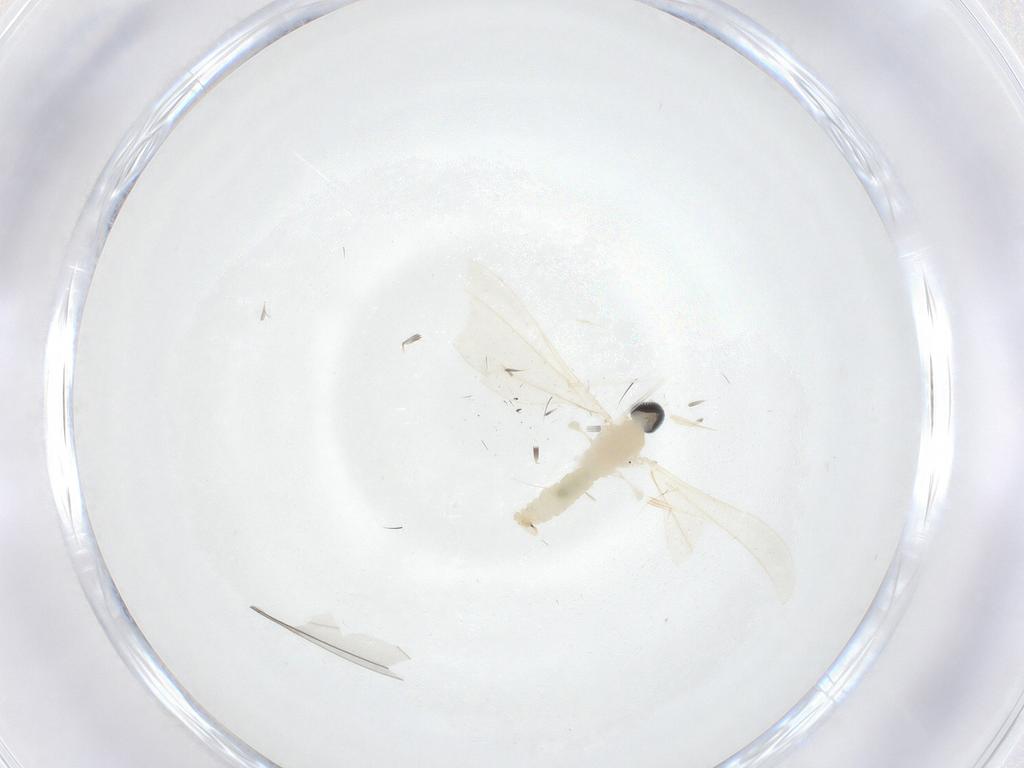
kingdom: Animalia
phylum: Arthropoda
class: Insecta
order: Diptera
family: Cecidomyiidae
